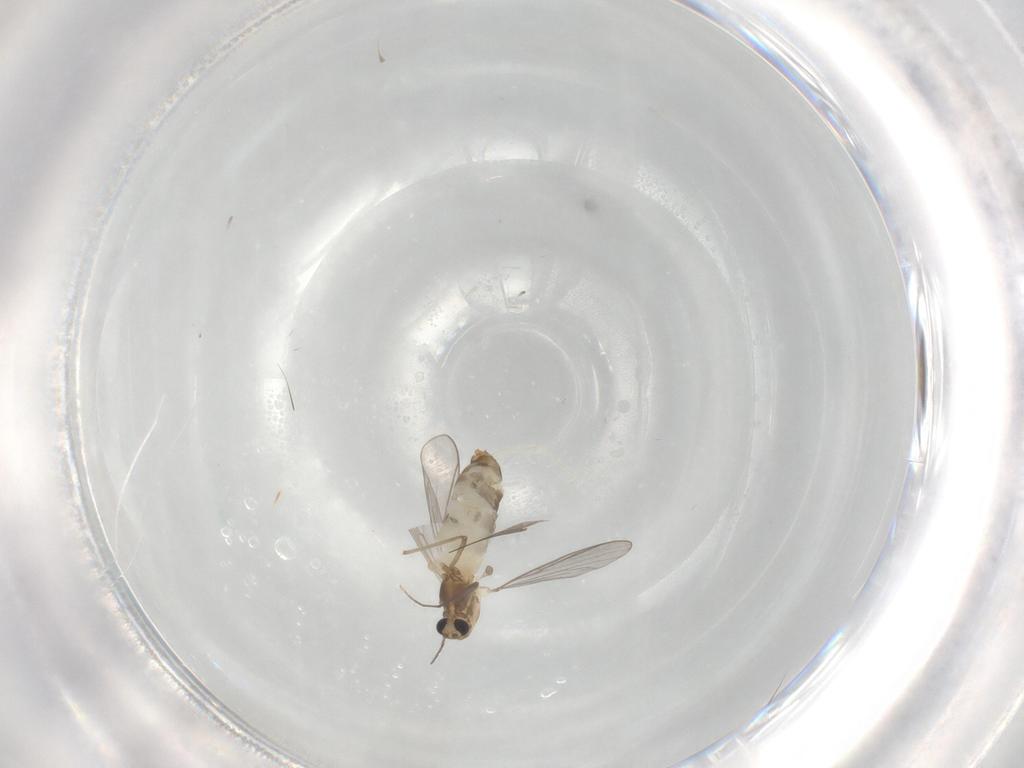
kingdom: Animalia
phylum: Arthropoda
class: Insecta
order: Diptera
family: Chironomidae
